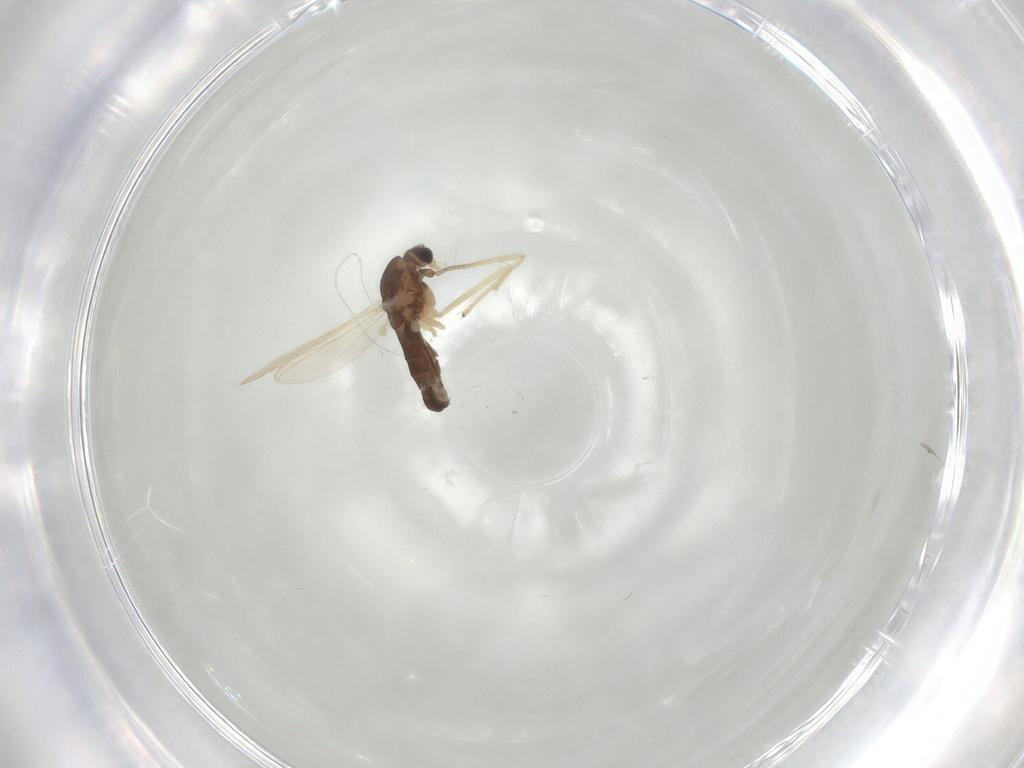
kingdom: Animalia
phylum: Arthropoda
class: Insecta
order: Diptera
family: Chironomidae
